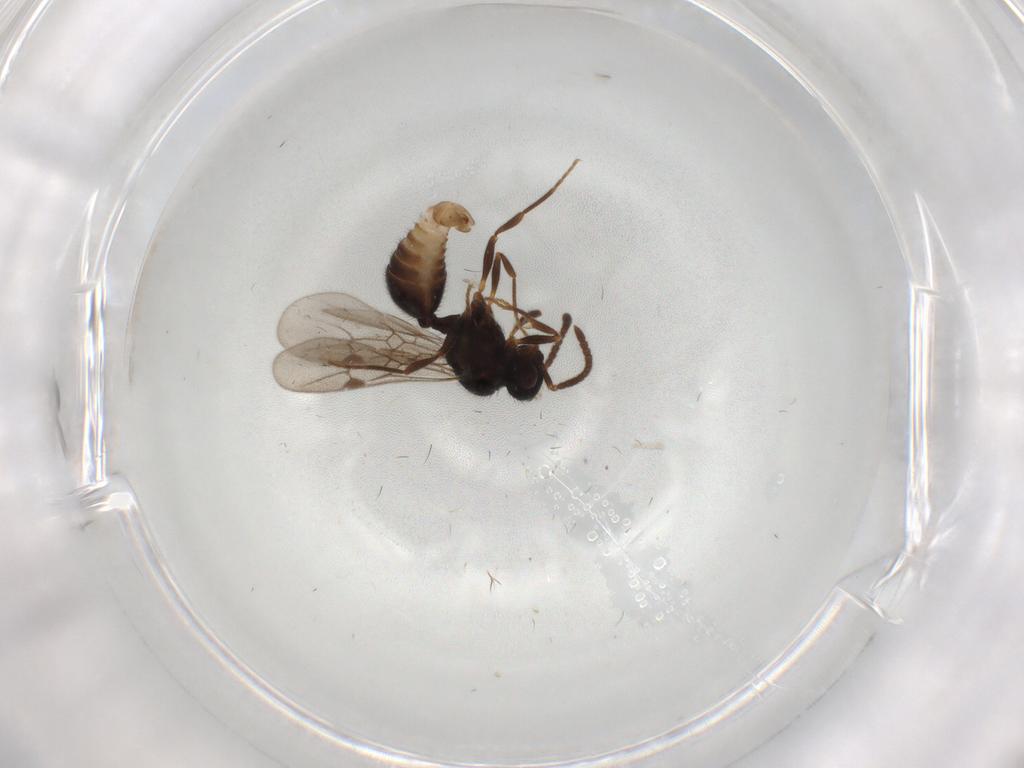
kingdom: Animalia
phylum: Arthropoda
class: Insecta
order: Hymenoptera
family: Formicidae
